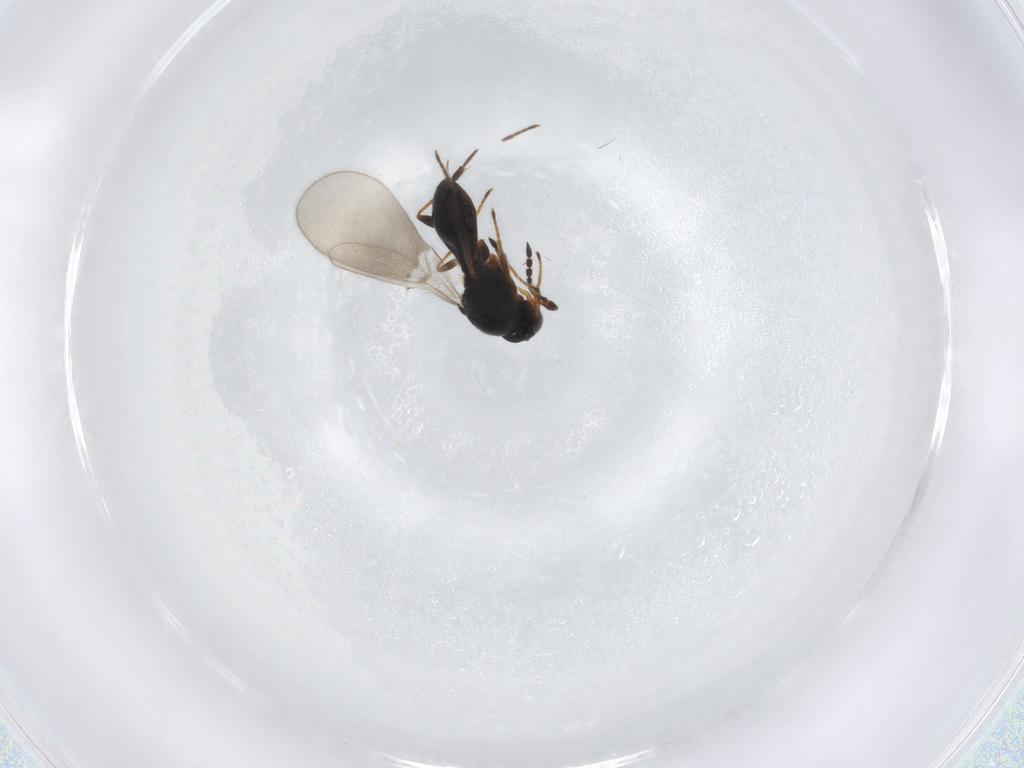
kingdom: Animalia
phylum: Arthropoda
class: Insecta
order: Hymenoptera
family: Platygastridae
